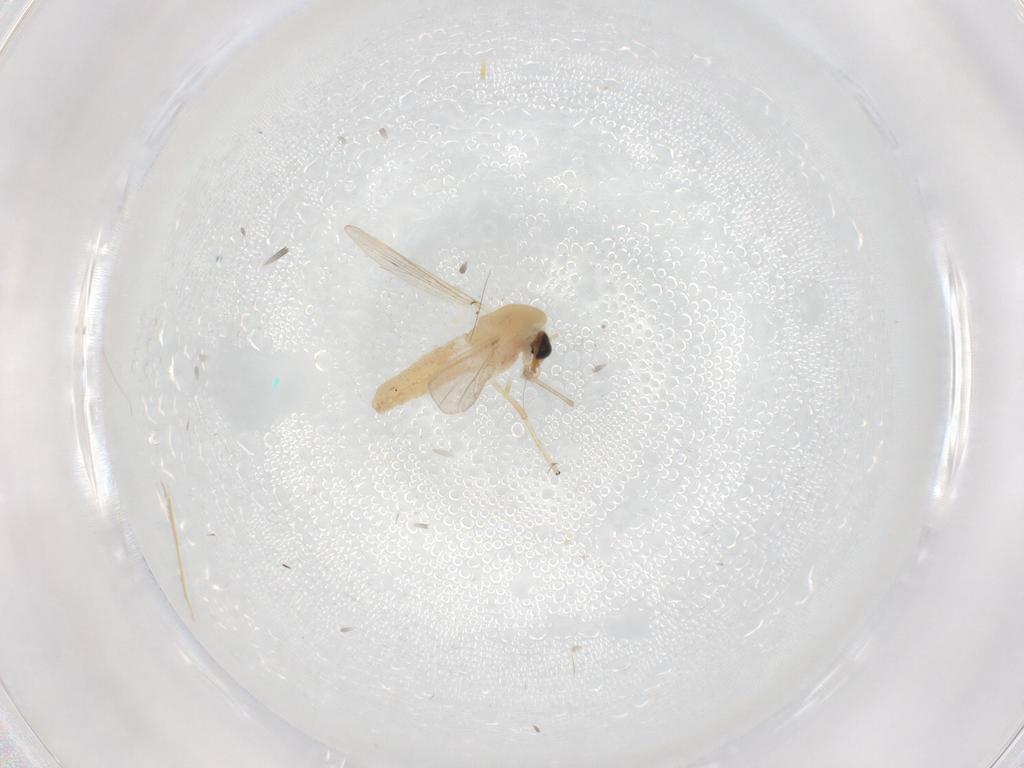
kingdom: Animalia
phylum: Arthropoda
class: Insecta
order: Diptera
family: Chironomidae
